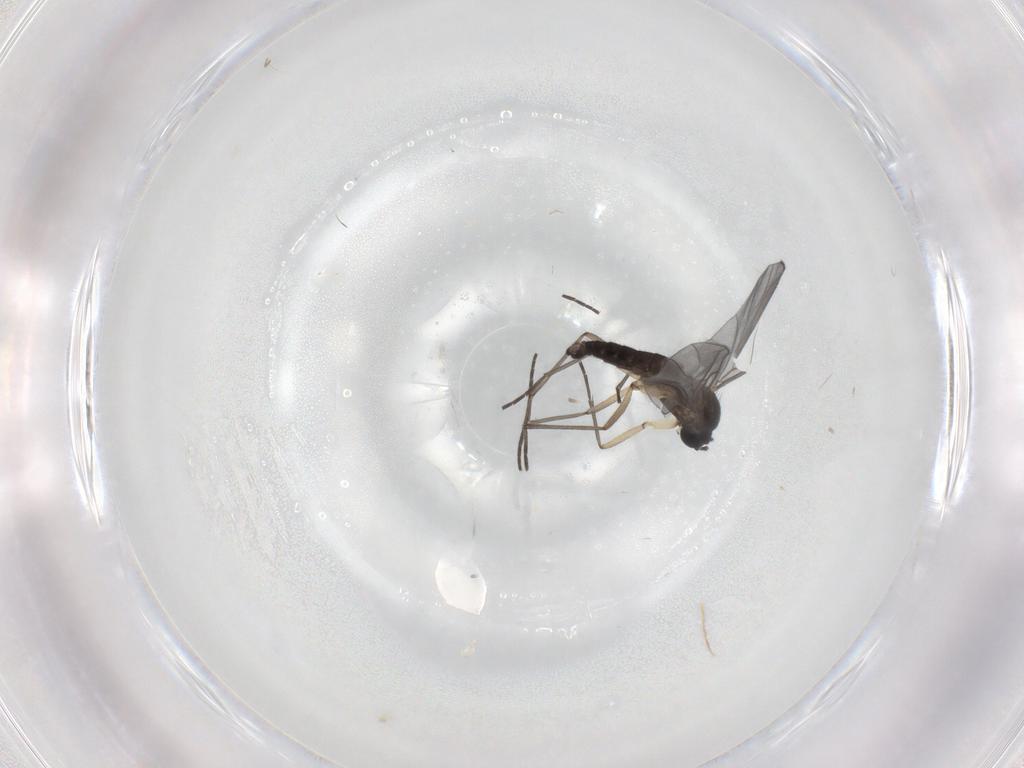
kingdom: Animalia
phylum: Arthropoda
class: Insecta
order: Diptera
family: Sciaridae
